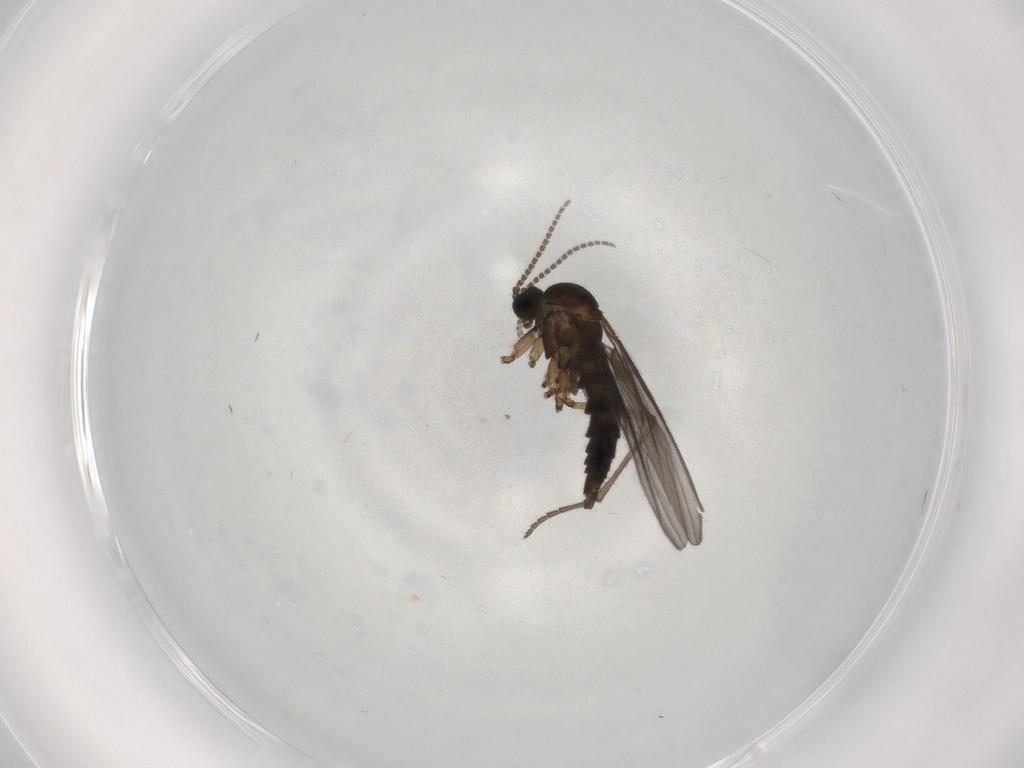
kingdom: Animalia
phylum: Arthropoda
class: Insecta
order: Diptera
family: Sciaridae
